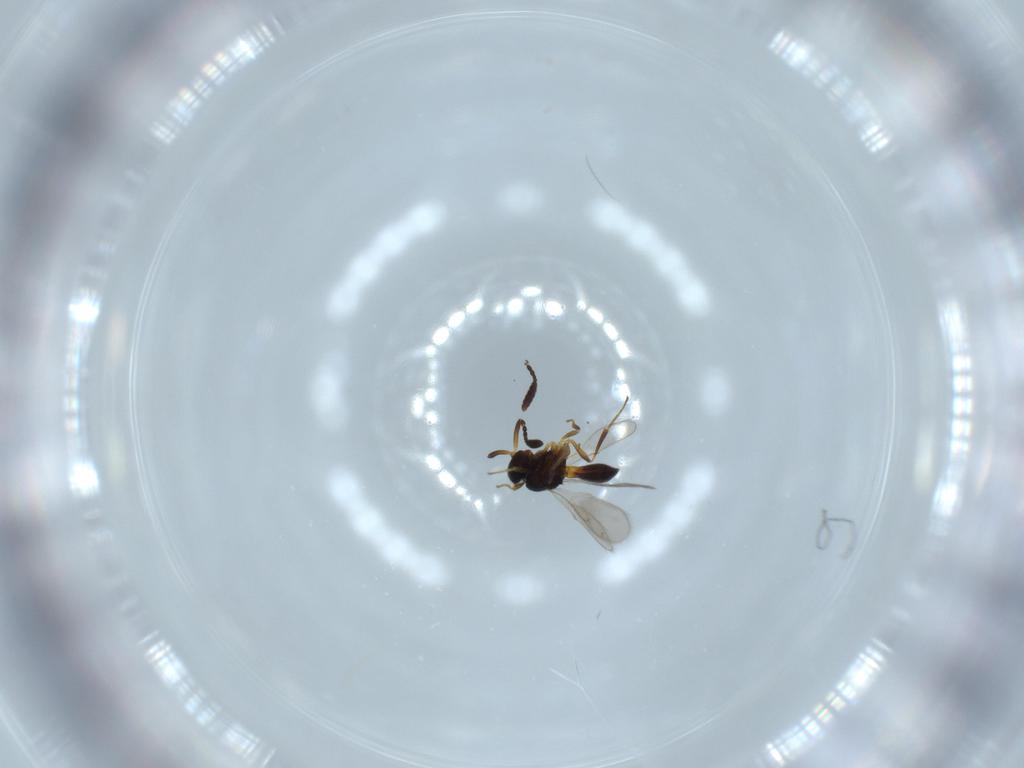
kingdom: Animalia
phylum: Arthropoda
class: Insecta
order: Hymenoptera
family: Scelionidae
